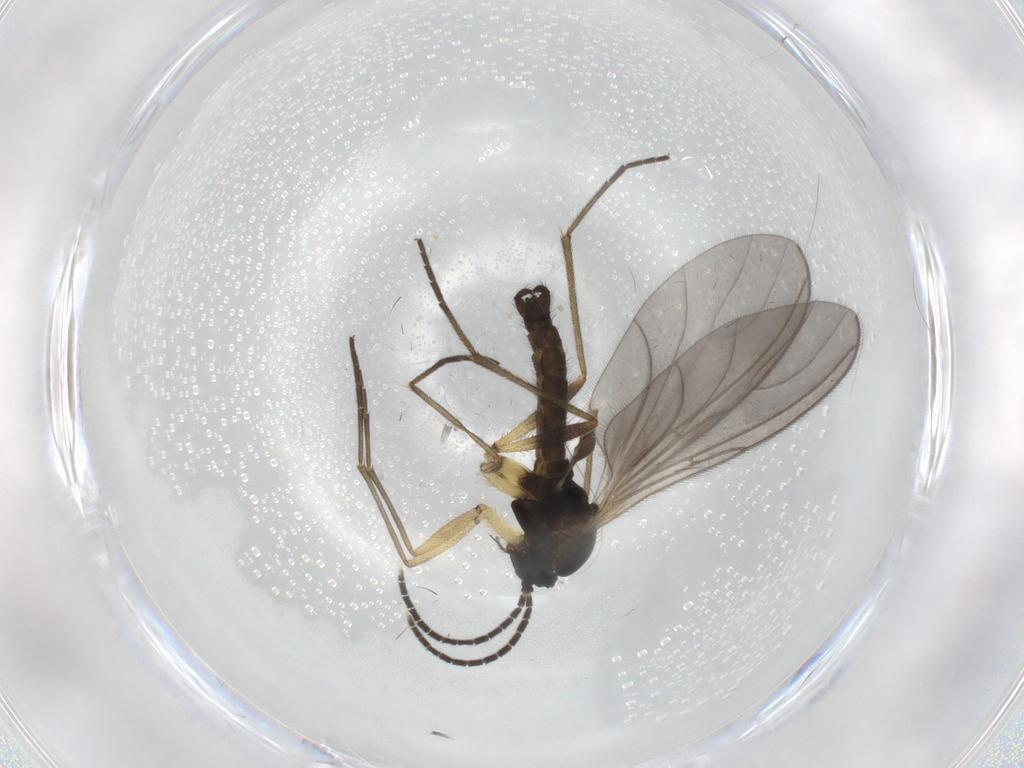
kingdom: Animalia
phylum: Arthropoda
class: Insecta
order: Diptera
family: Sciaridae
